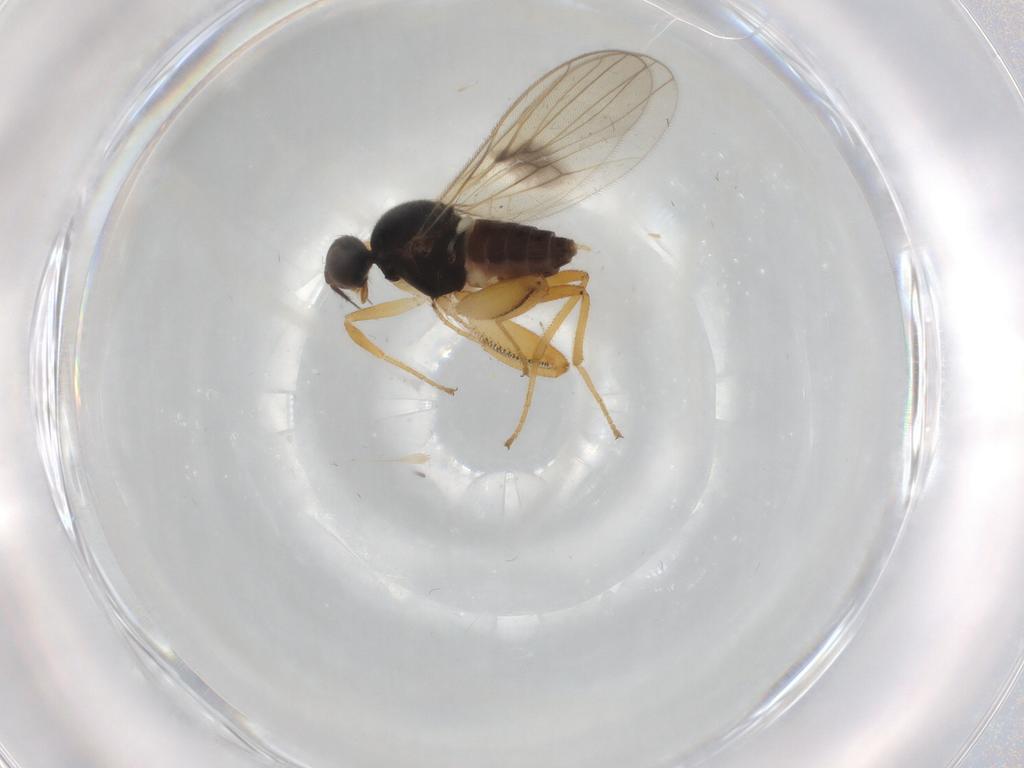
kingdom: Animalia
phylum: Arthropoda
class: Insecta
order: Diptera
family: Hybotidae
